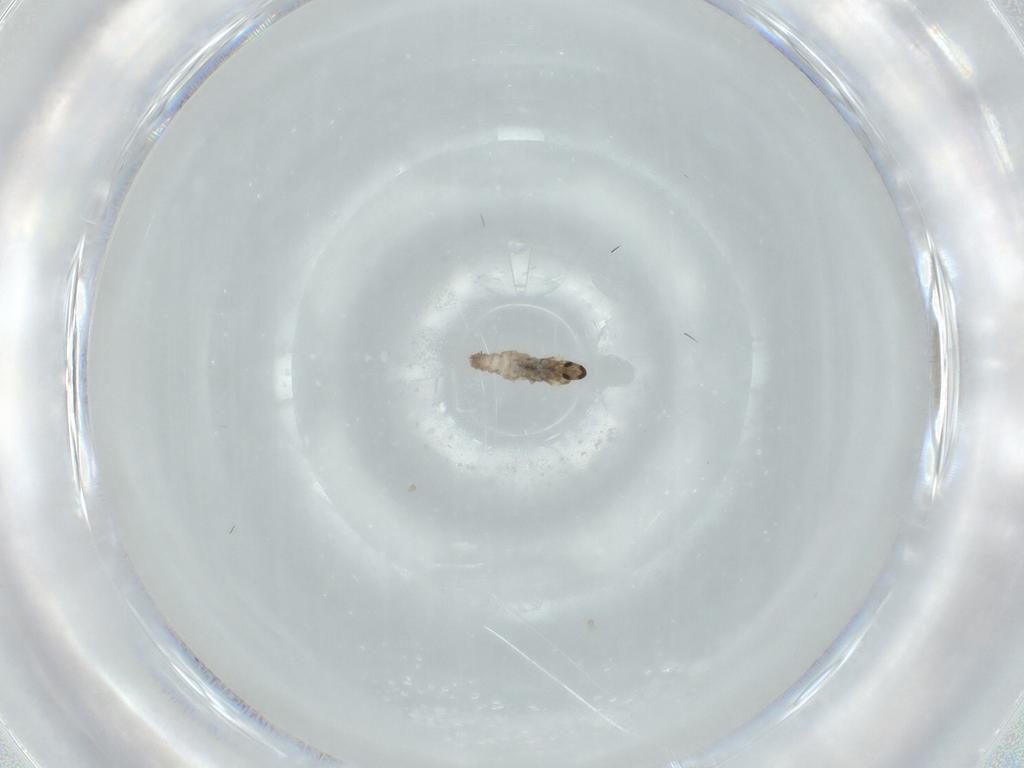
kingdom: Animalia
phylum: Arthropoda
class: Insecta
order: Diptera
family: Cecidomyiidae
